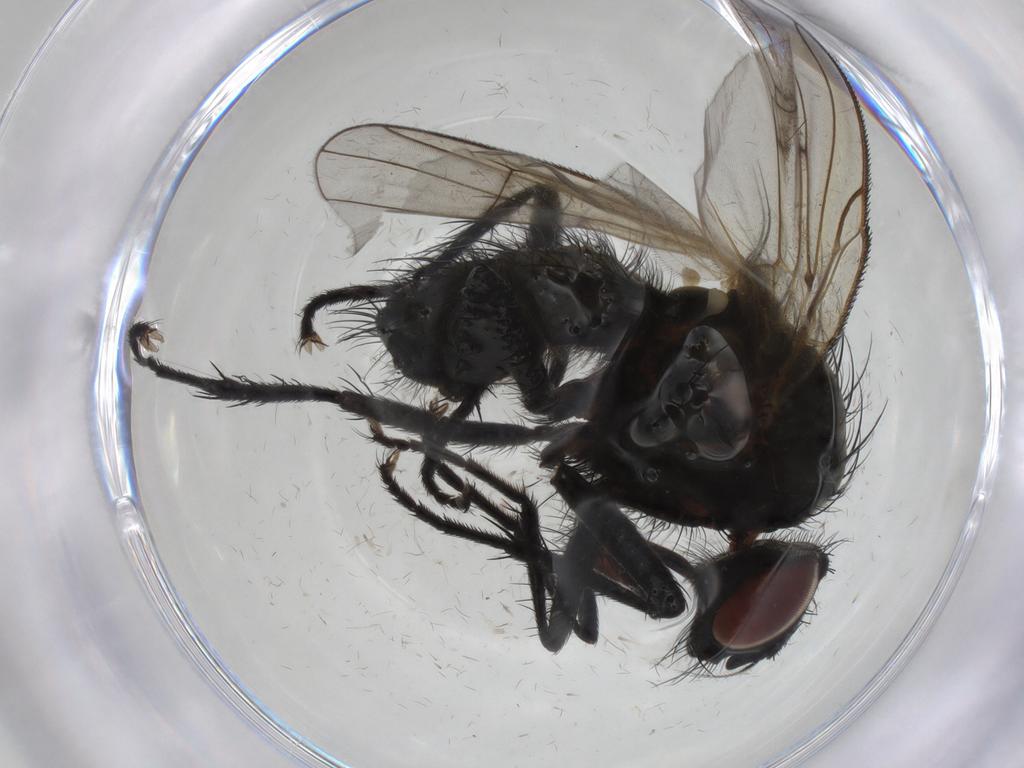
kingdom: Animalia
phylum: Arthropoda
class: Insecta
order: Diptera
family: Anthomyiidae
